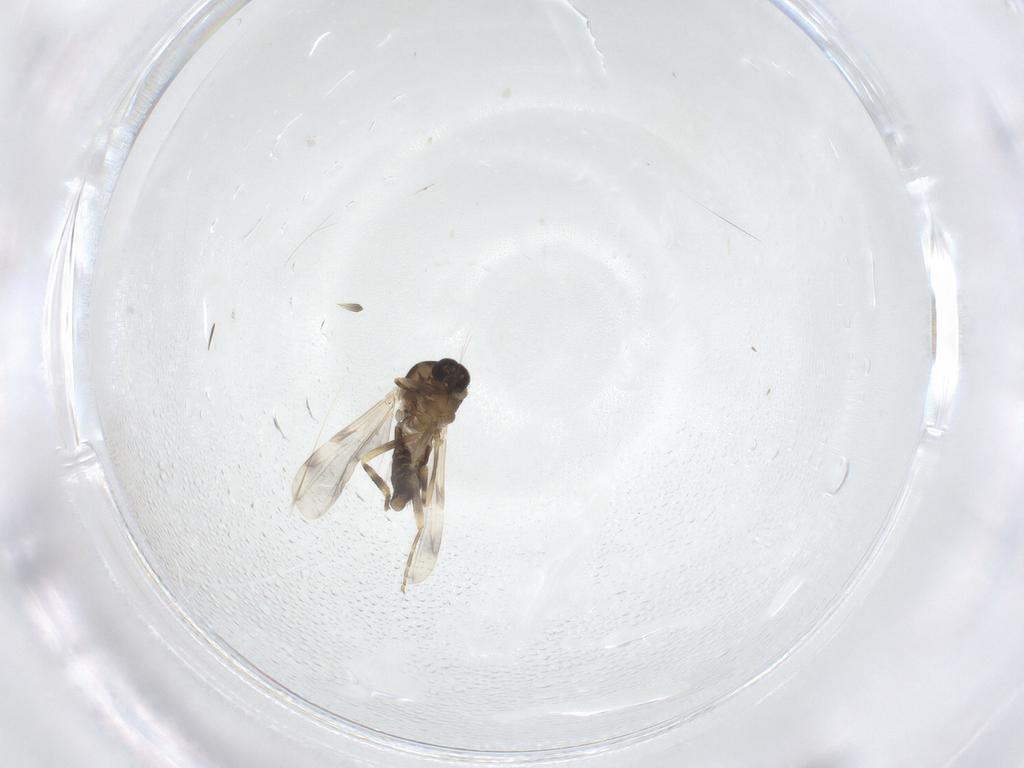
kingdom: Animalia
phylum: Arthropoda
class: Insecta
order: Diptera
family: Ceratopogonidae
